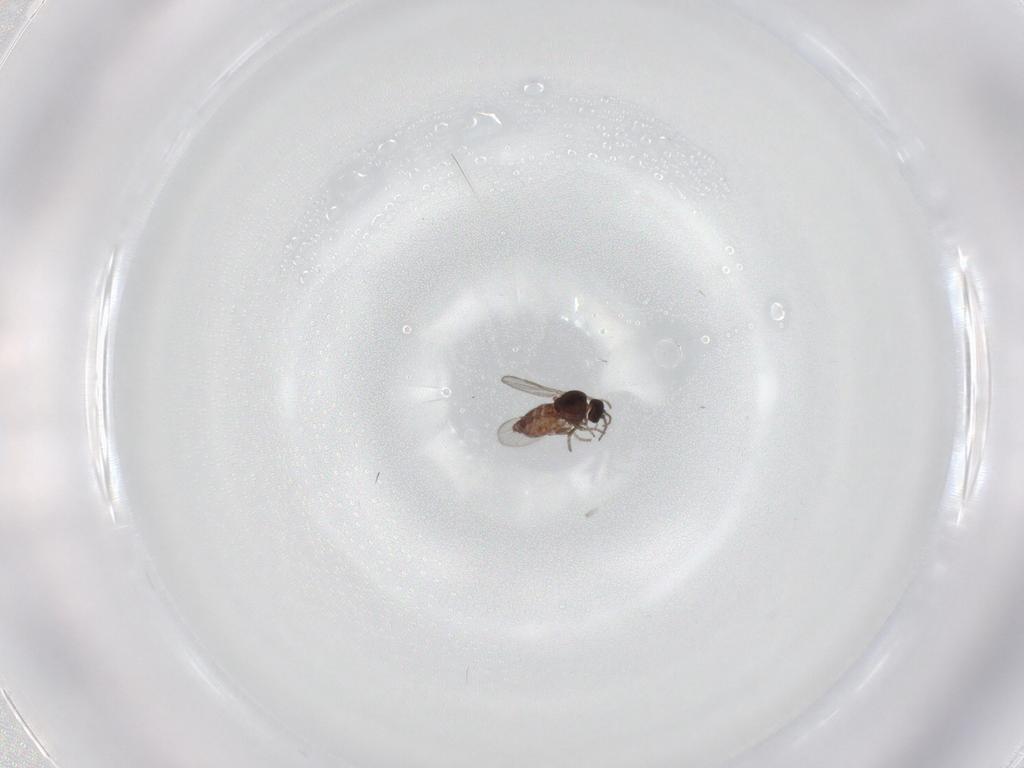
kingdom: Animalia
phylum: Arthropoda
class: Insecta
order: Diptera
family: Ceratopogonidae
